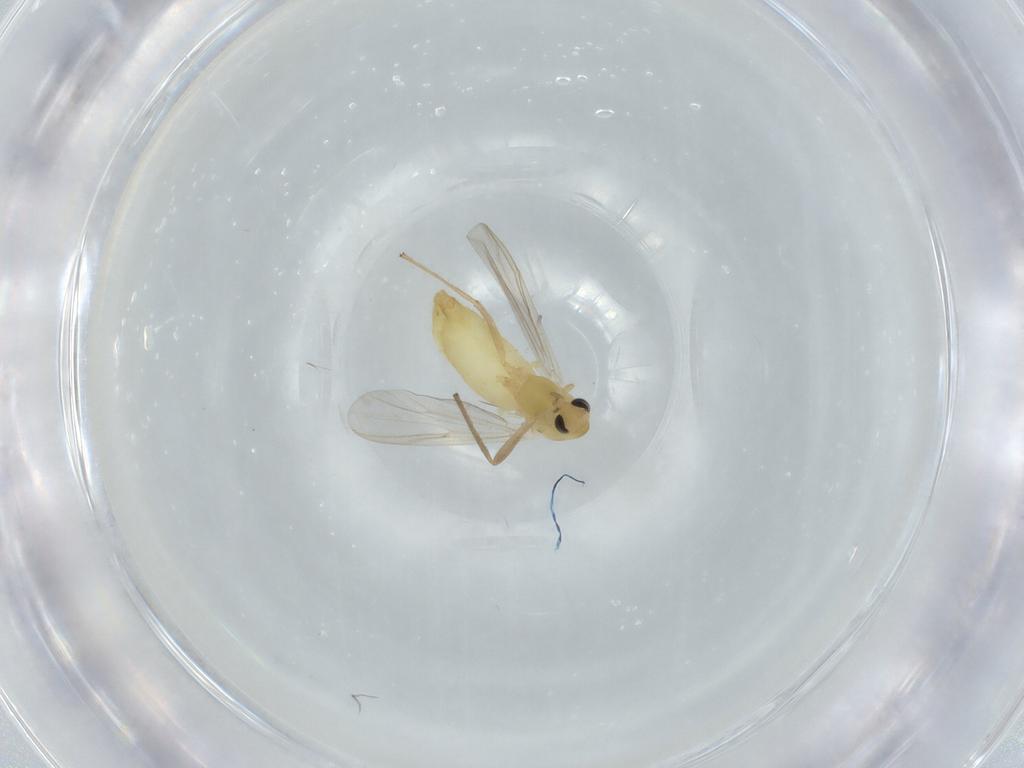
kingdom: Animalia
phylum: Arthropoda
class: Insecta
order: Diptera
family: Chironomidae
